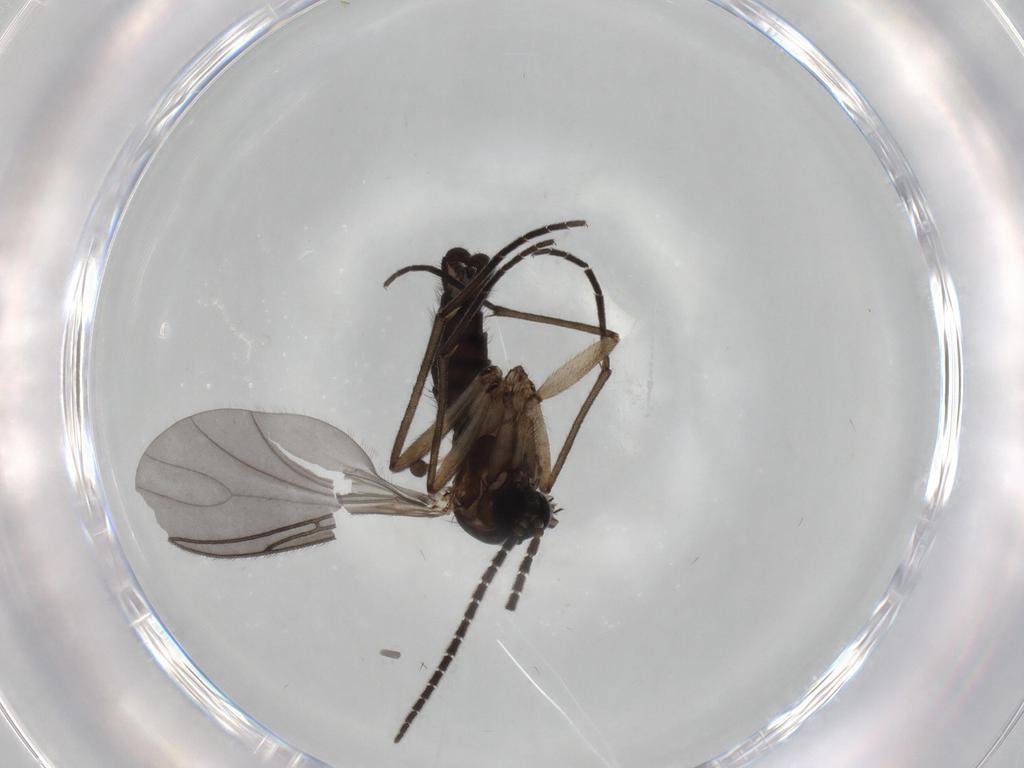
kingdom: Animalia
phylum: Arthropoda
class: Insecta
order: Diptera
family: Sciaridae
